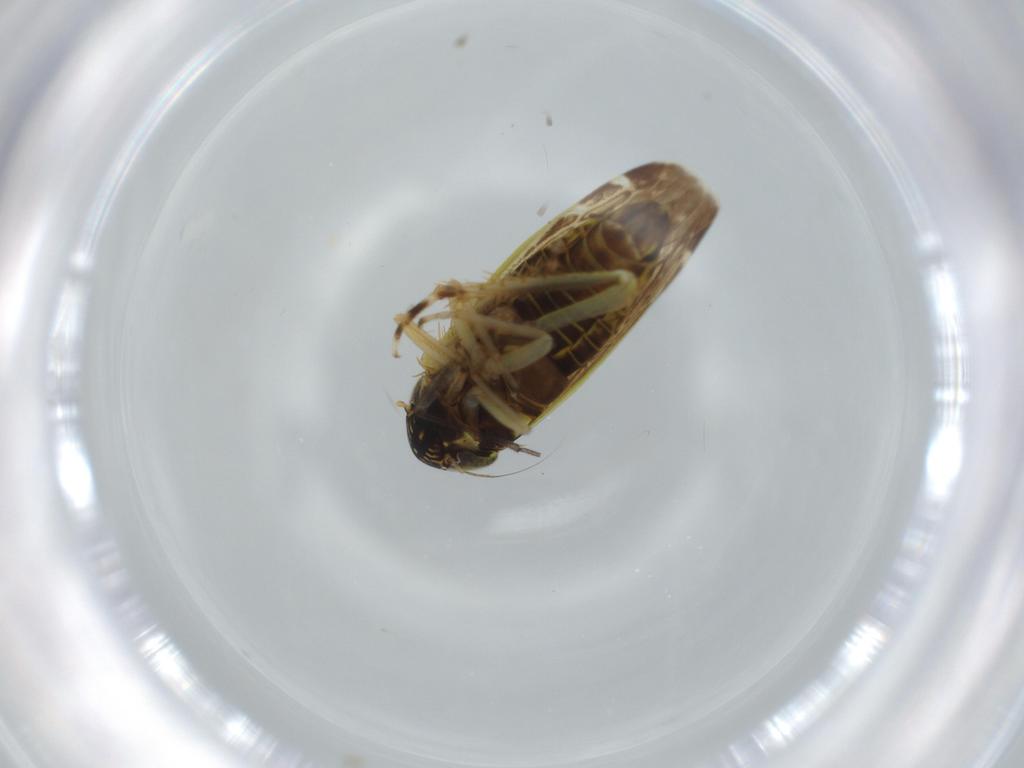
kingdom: Animalia
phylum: Arthropoda
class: Insecta
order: Hemiptera
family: Cicadellidae
